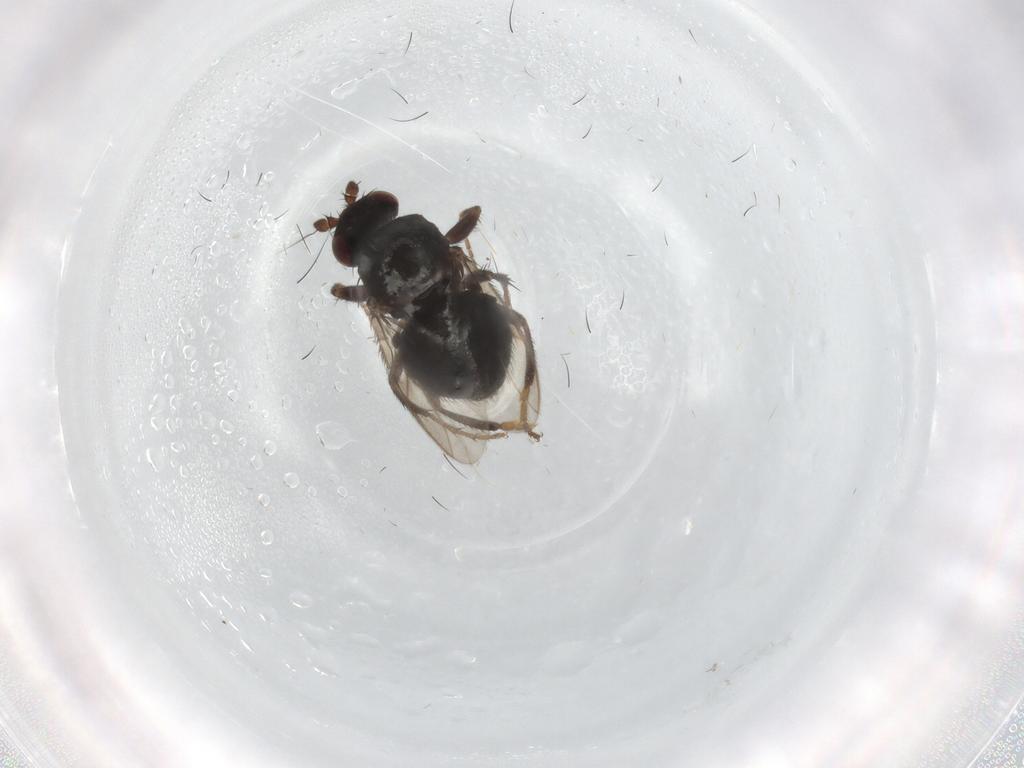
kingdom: Animalia
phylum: Arthropoda
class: Insecta
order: Diptera
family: Sphaeroceridae
